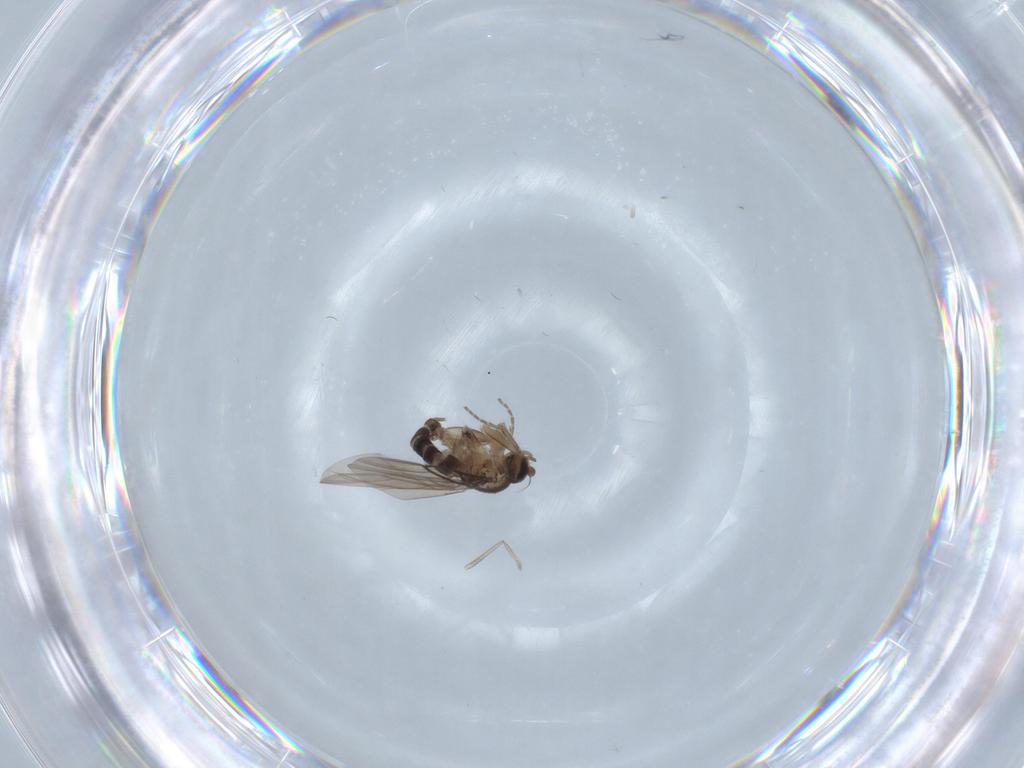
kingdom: Animalia
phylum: Arthropoda
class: Insecta
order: Diptera
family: Phoridae
